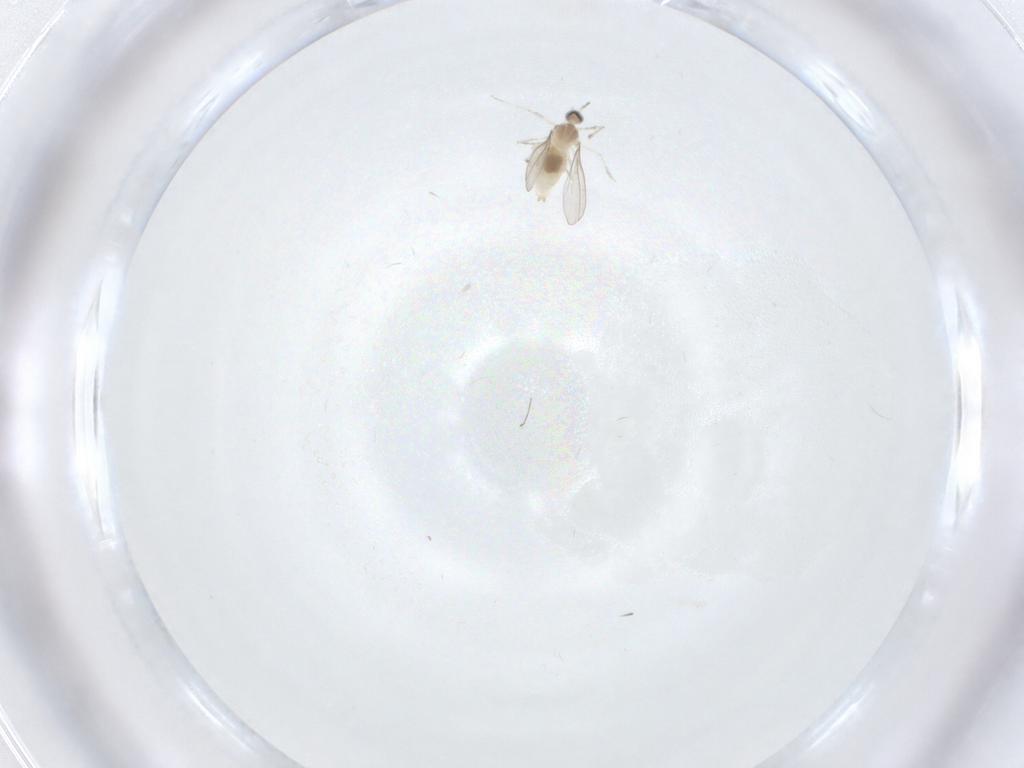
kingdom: Animalia
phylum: Arthropoda
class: Insecta
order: Diptera
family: Cecidomyiidae
